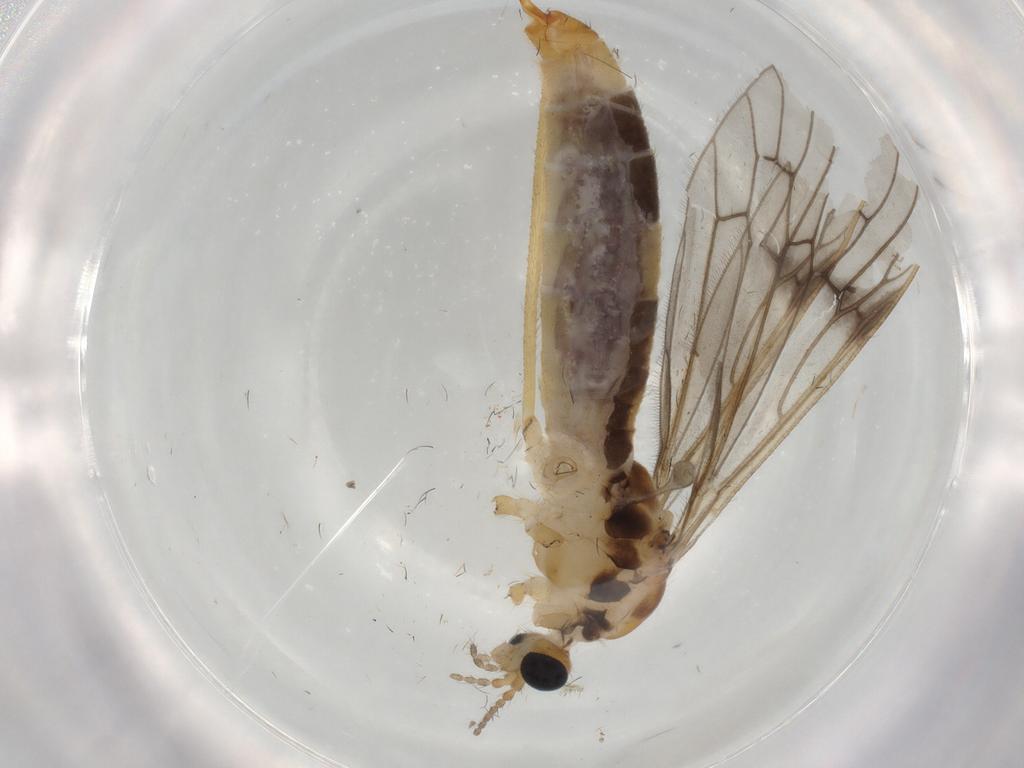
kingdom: Animalia
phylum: Arthropoda
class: Insecta
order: Diptera
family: Limoniidae
